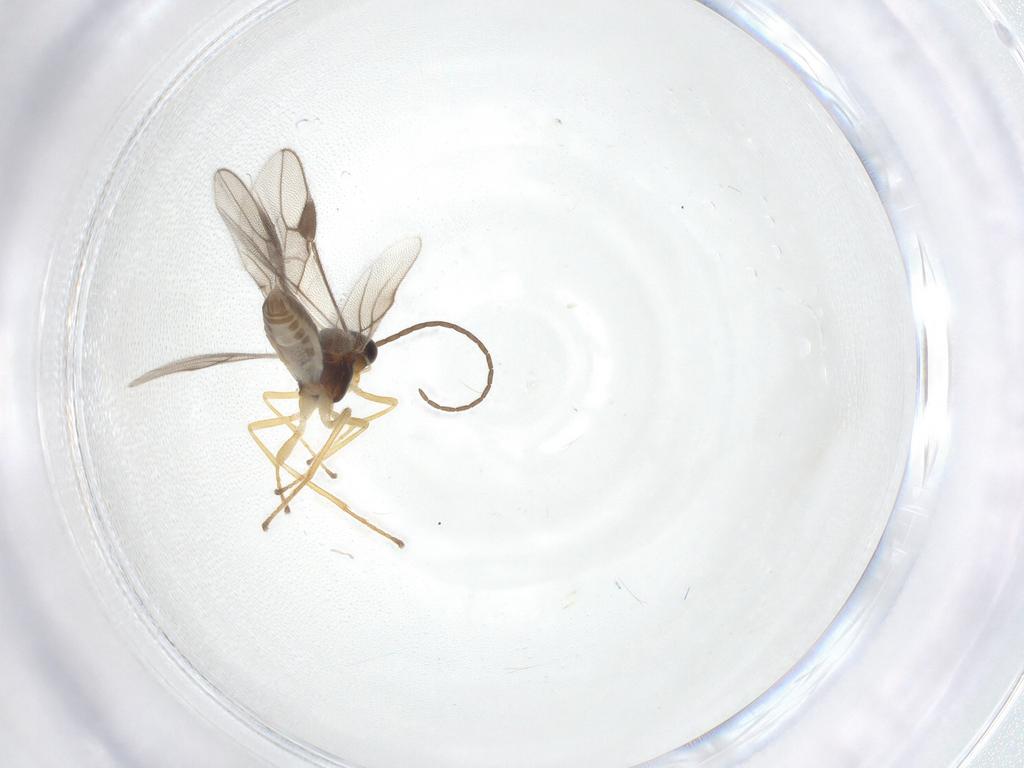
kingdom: Animalia
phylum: Arthropoda
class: Insecta
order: Hymenoptera
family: Braconidae
